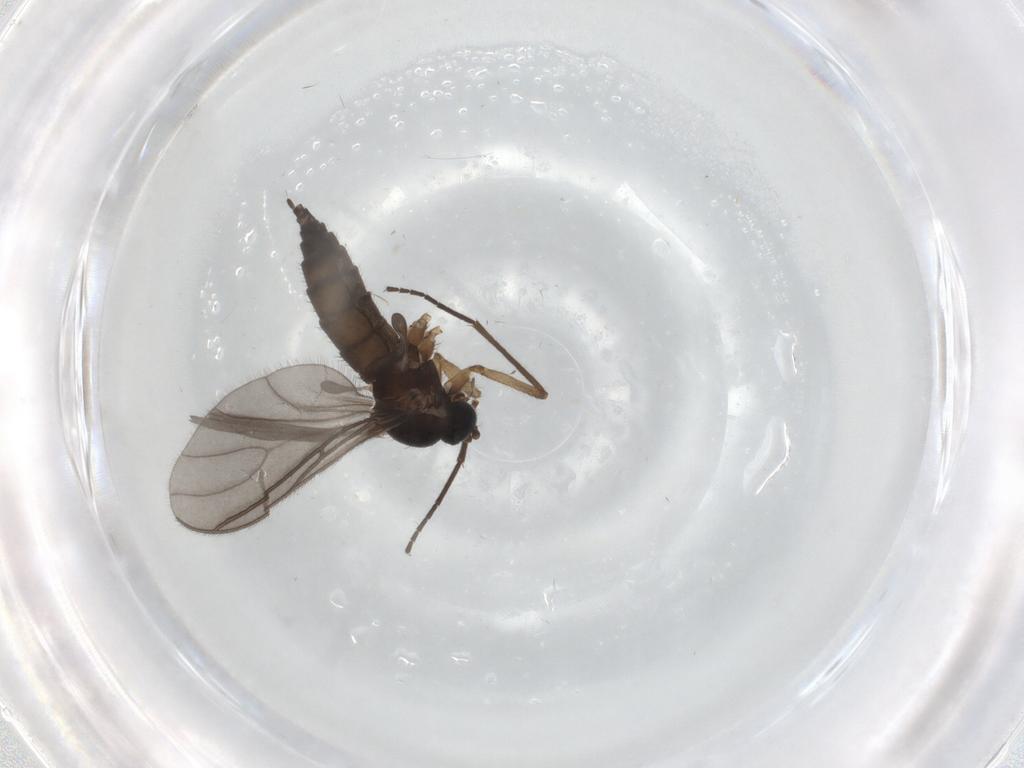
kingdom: Animalia
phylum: Arthropoda
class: Insecta
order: Diptera
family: Sciaridae
